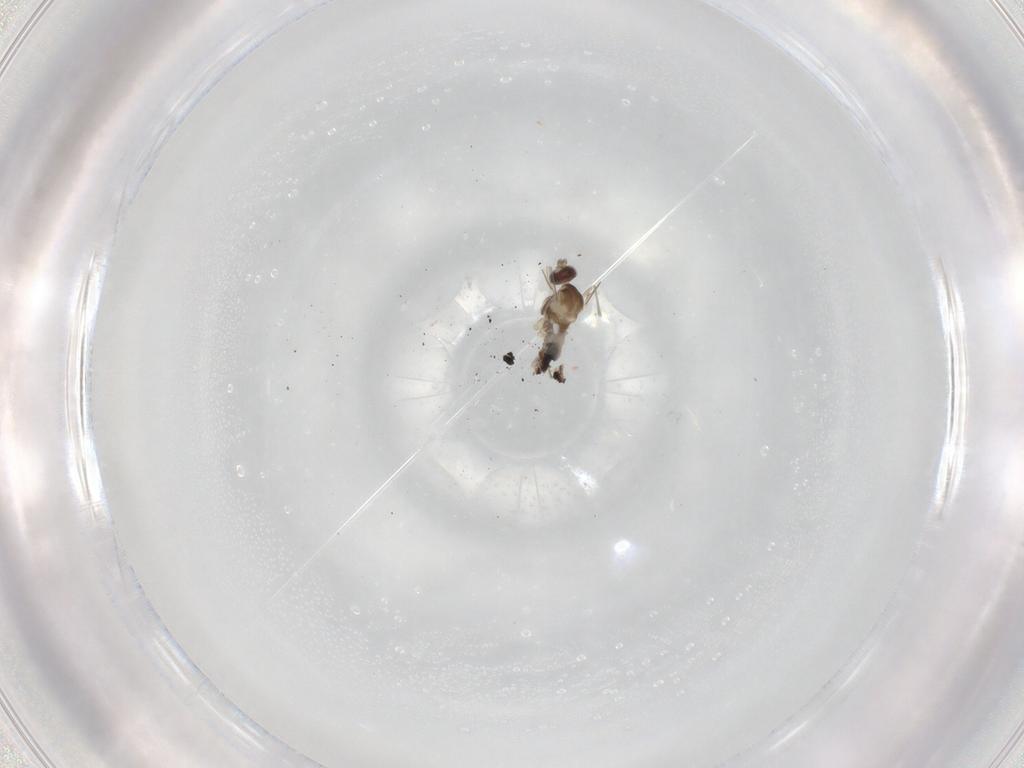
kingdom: Animalia
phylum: Arthropoda
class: Insecta
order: Diptera
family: Cecidomyiidae
